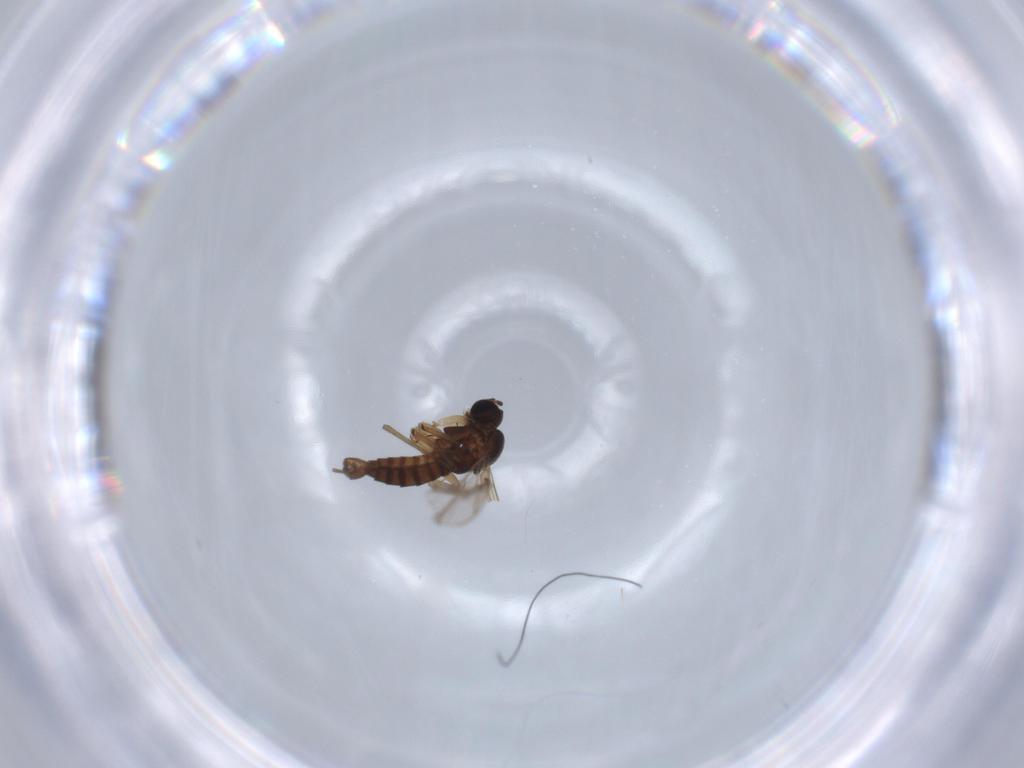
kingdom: Animalia
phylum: Arthropoda
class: Insecta
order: Diptera
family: Sciaridae
